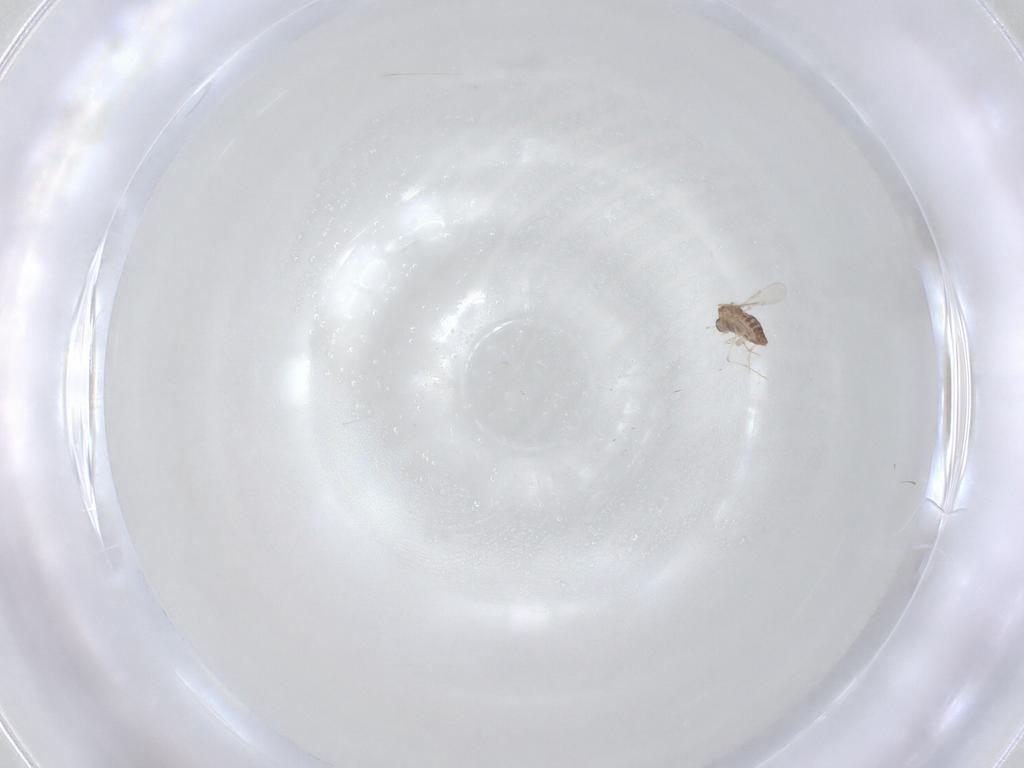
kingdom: Animalia
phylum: Arthropoda
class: Insecta
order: Diptera
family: Chironomidae
